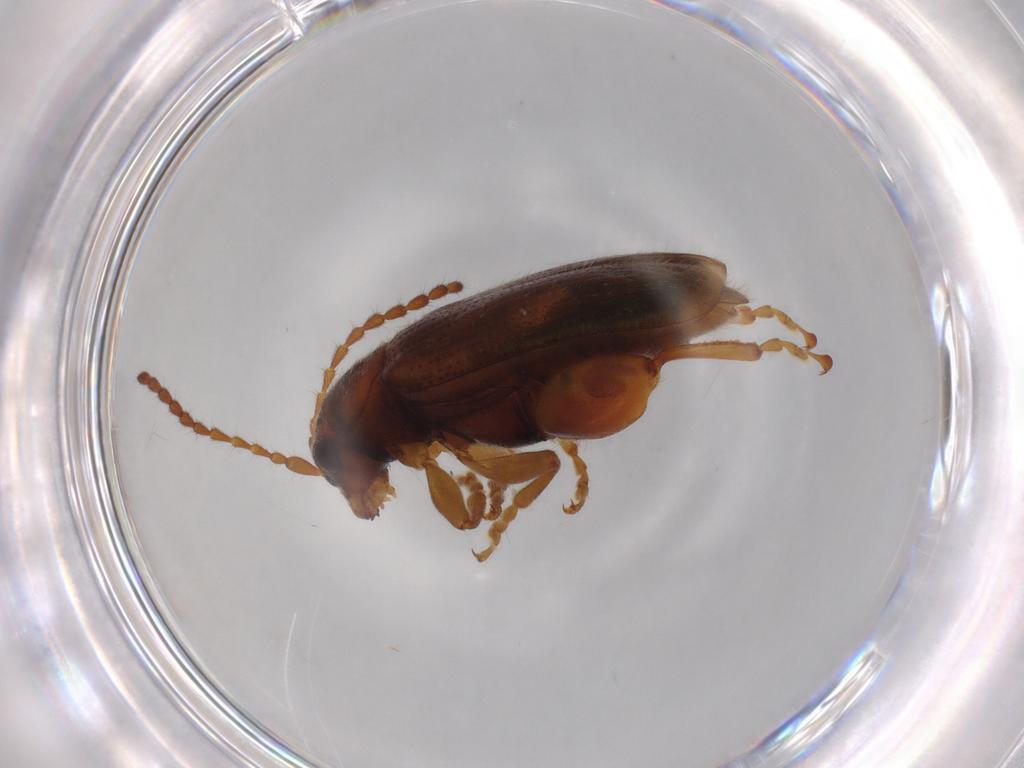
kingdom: Animalia
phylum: Arthropoda
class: Insecta
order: Coleoptera
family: Chrysomelidae
